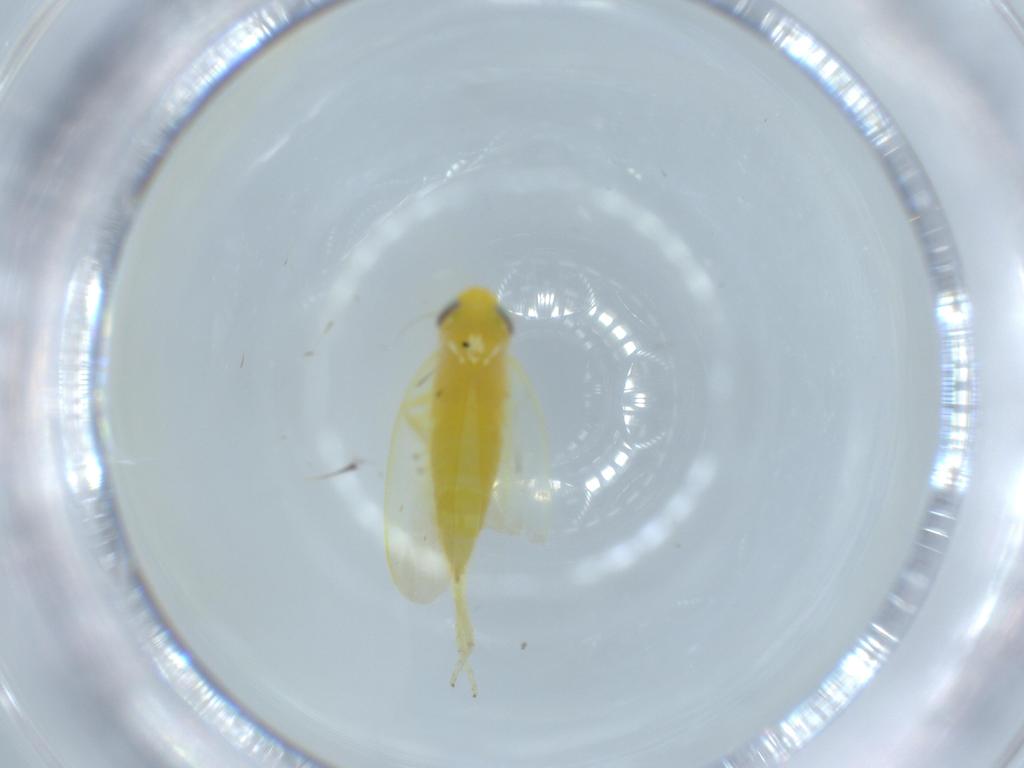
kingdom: Animalia
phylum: Arthropoda
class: Insecta
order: Hemiptera
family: Cicadellidae
